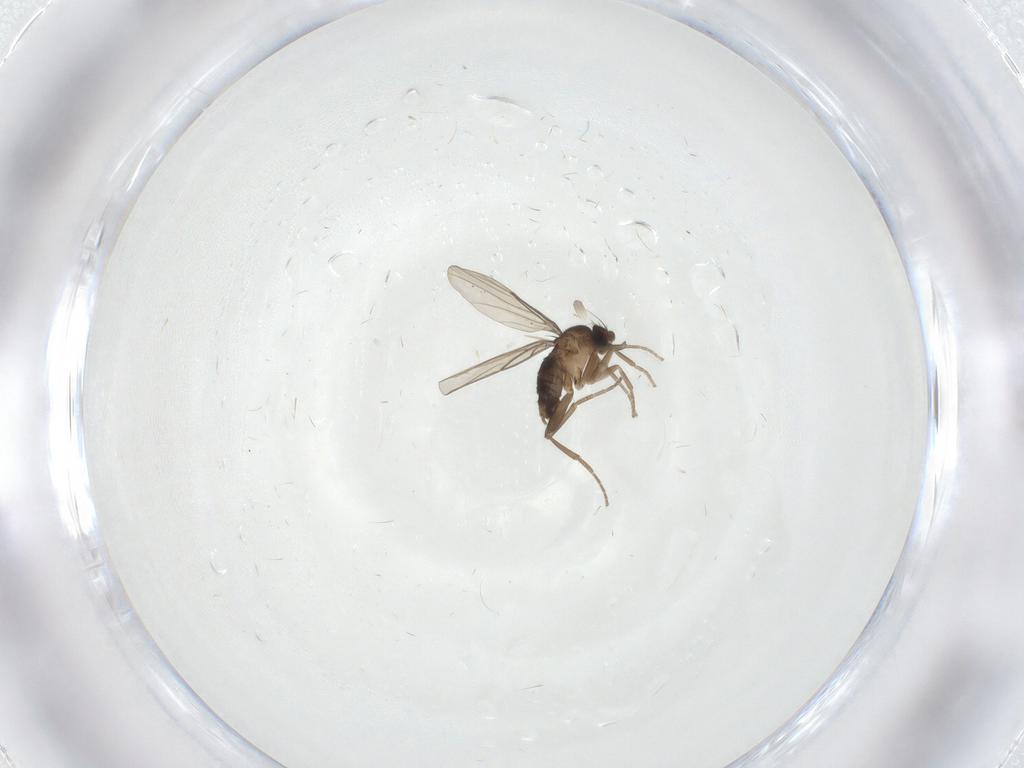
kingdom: Animalia
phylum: Arthropoda
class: Insecta
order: Diptera
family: Phoridae
